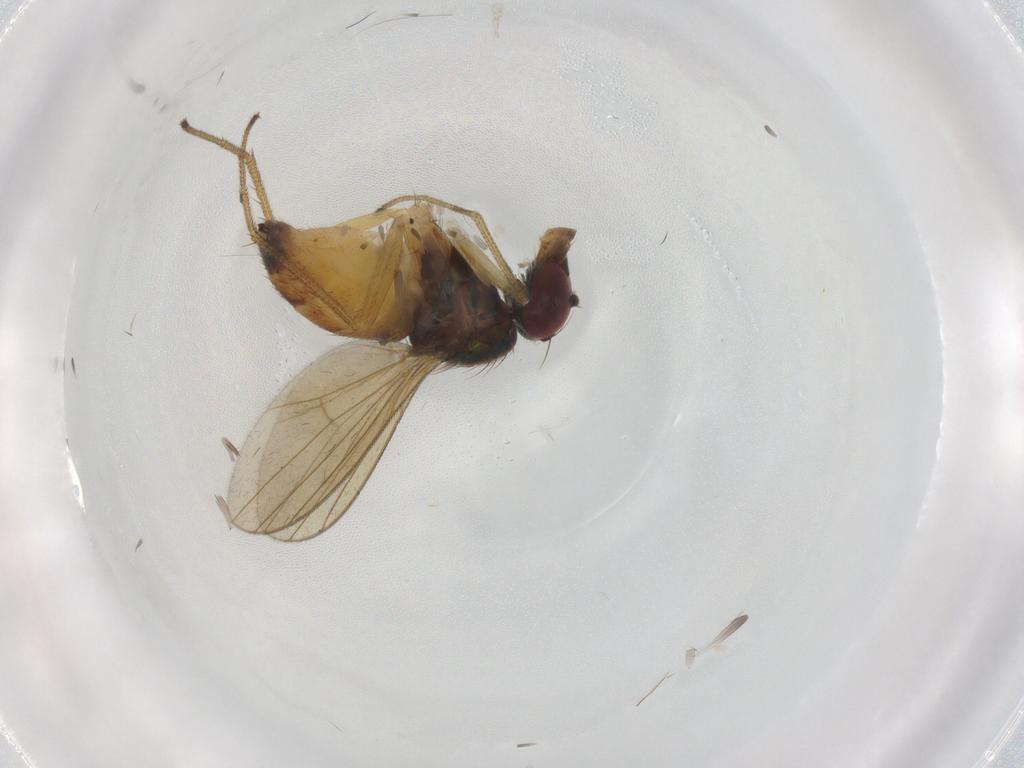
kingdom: Animalia
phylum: Arthropoda
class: Insecta
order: Diptera
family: Dolichopodidae
